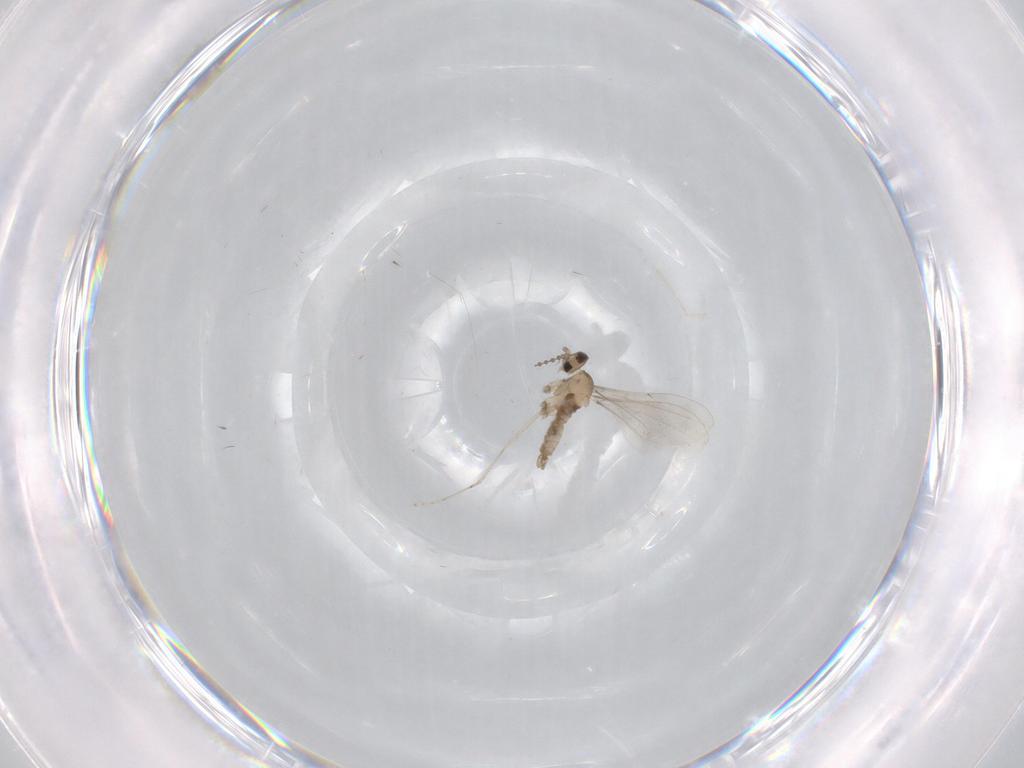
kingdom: Animalia
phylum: Arthropoda
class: Insecta
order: Diptera
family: Cecidomyiidae
